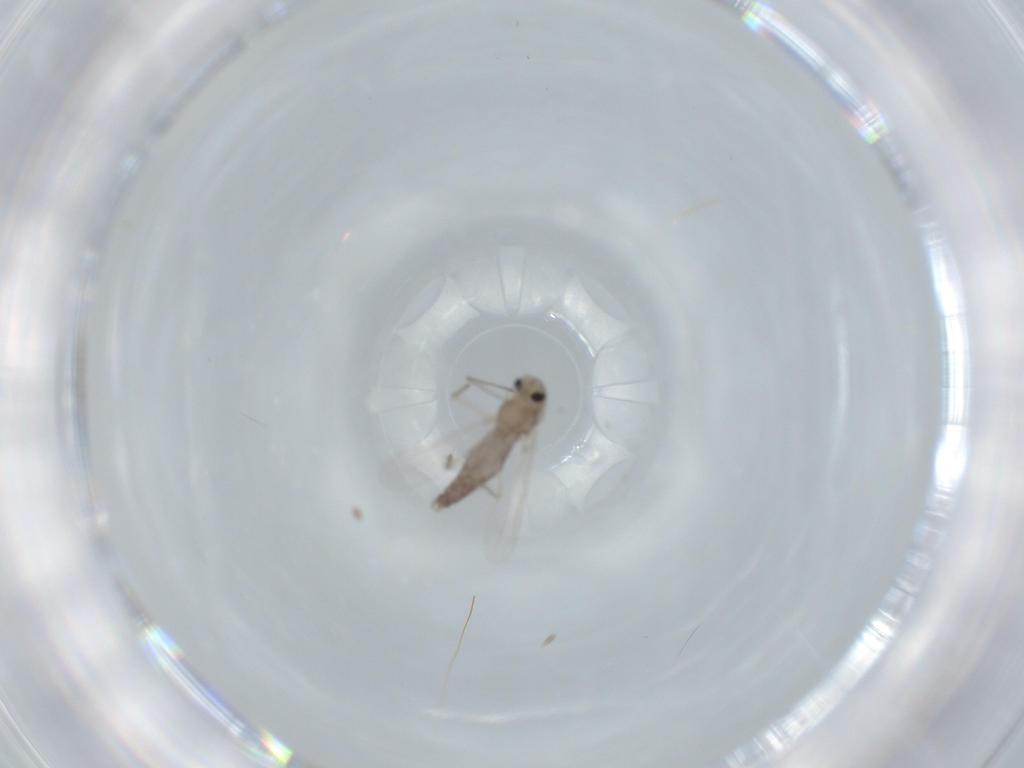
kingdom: Animalia
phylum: Arthropoda
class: Insecta
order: Diptera
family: Chironomidae
